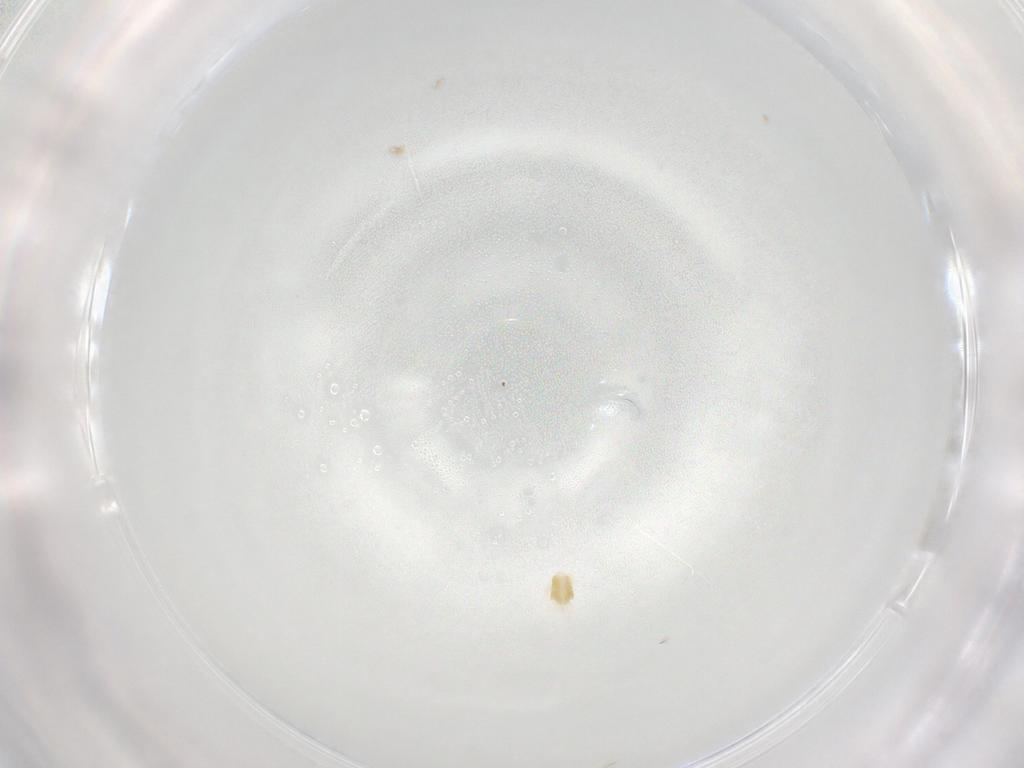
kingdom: Animalia
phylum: Arthropoda
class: Arachnida
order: Trombidiformes
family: Eupodidae
